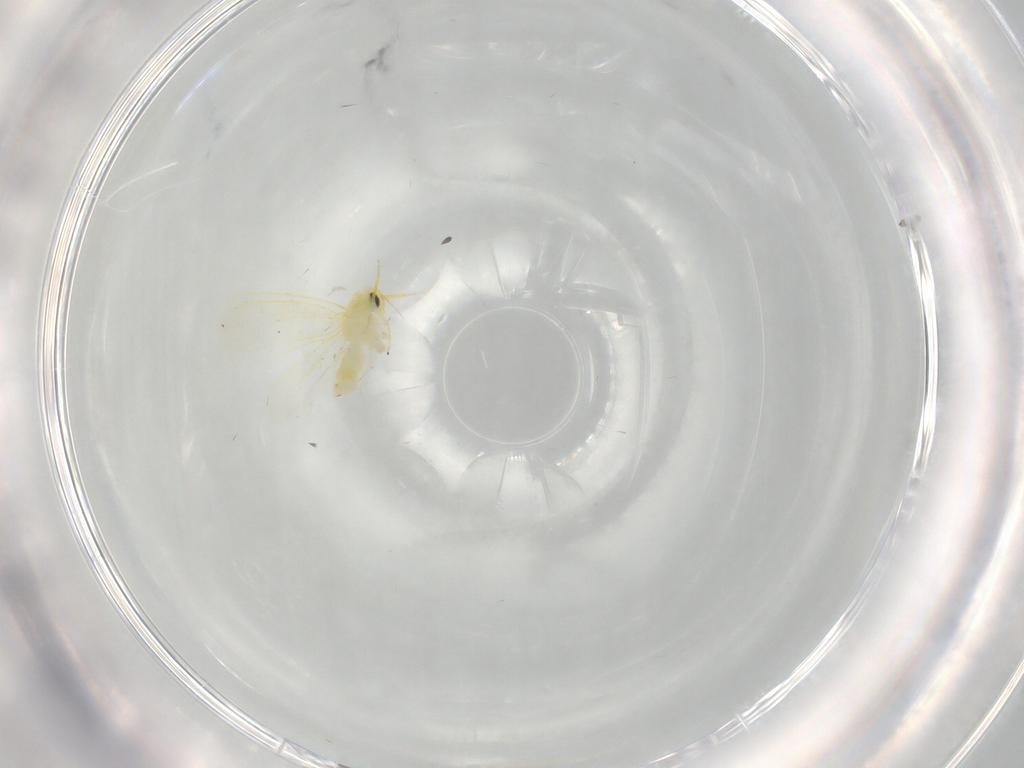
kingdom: Animalia
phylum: Arthropoda
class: Insecta
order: Hemiptera
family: Aleyrodidae
